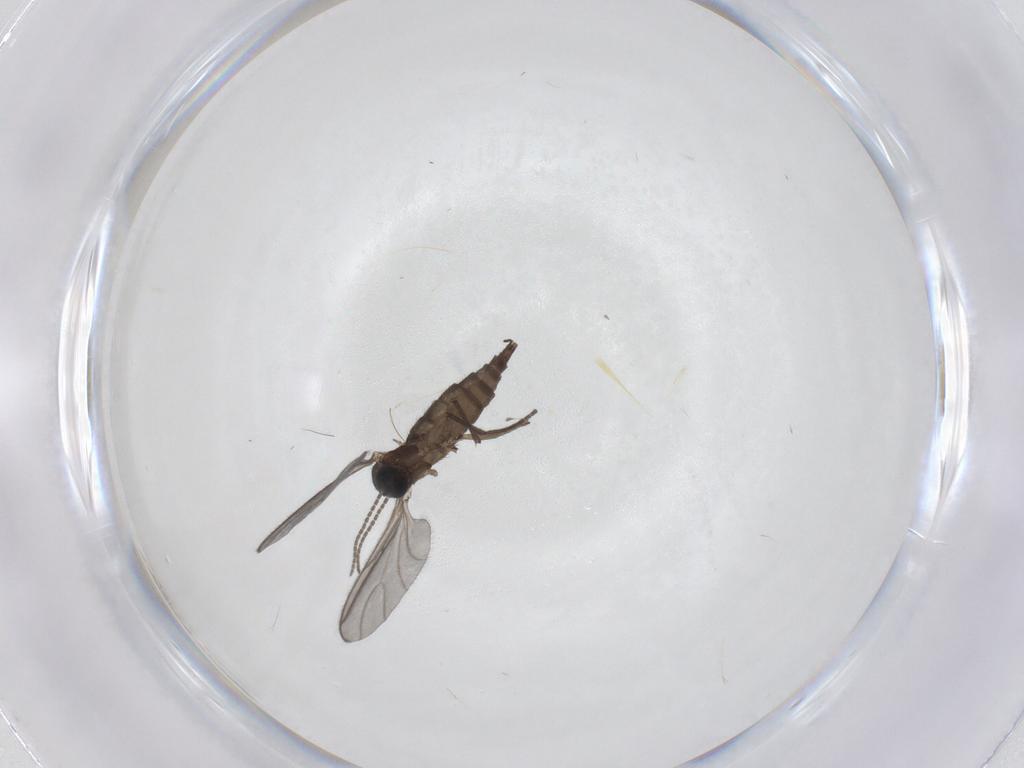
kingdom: Animalia
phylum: Arthropoda
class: Insecta
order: Diptera
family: Sciaridae
